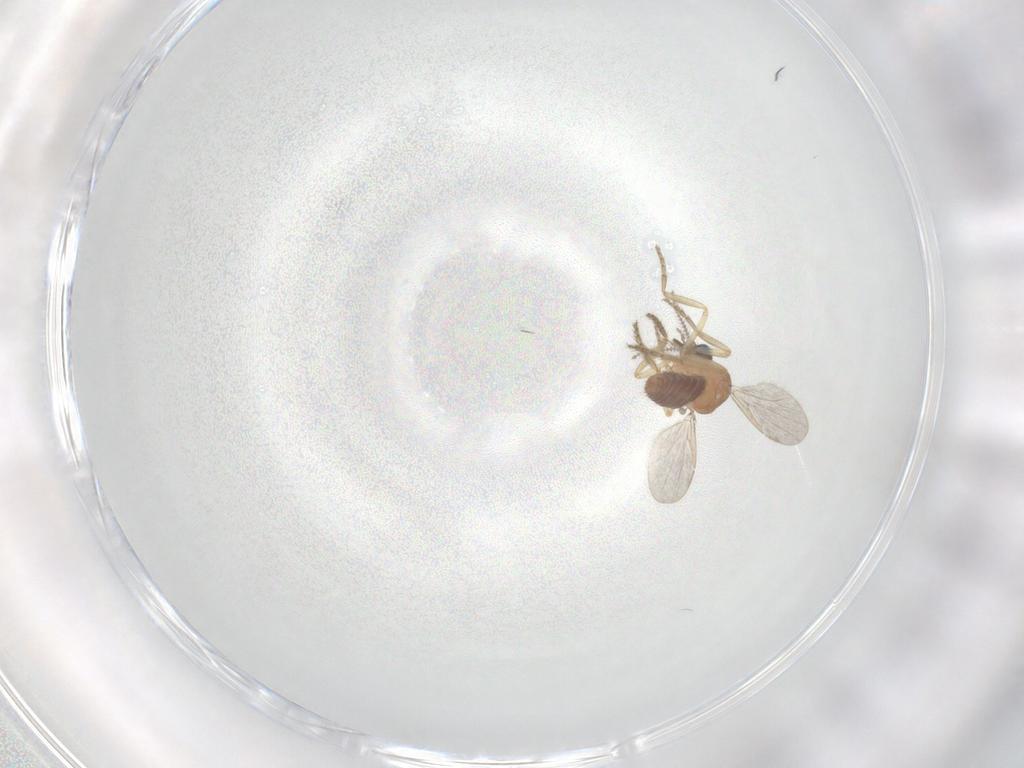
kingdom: Animalia
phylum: Arthropoda
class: Insecta
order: Diptera
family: Ceratopogonidae
